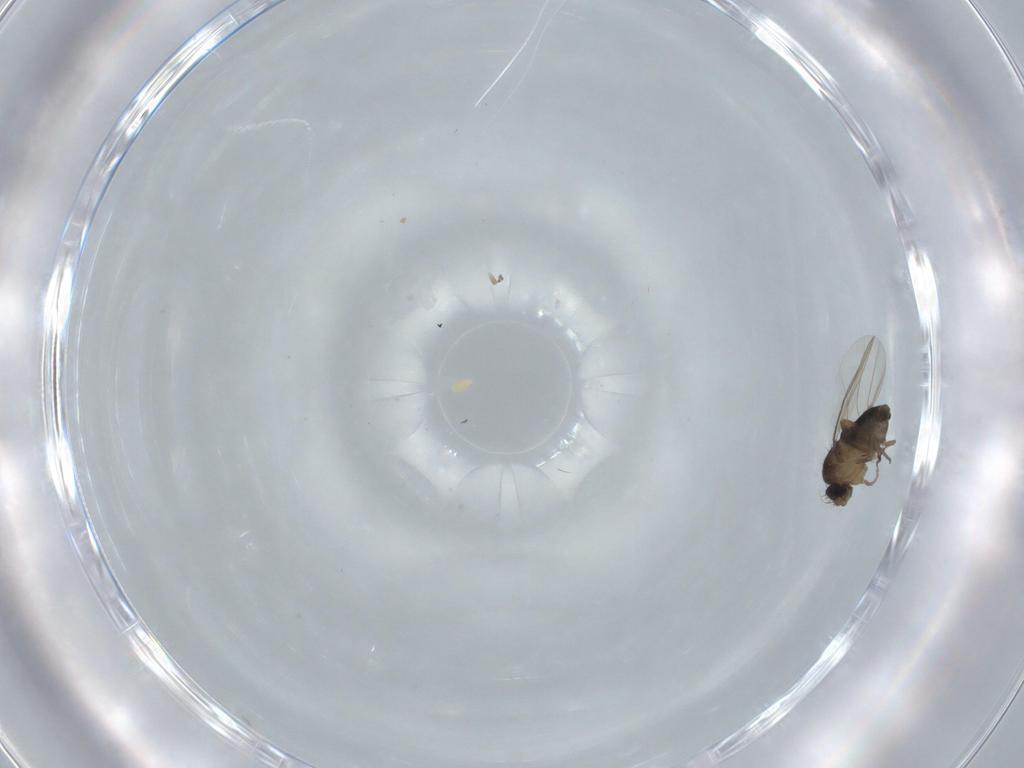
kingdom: Animalia
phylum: Arthropoda
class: Insecta
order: Diptera
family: Phoridae
